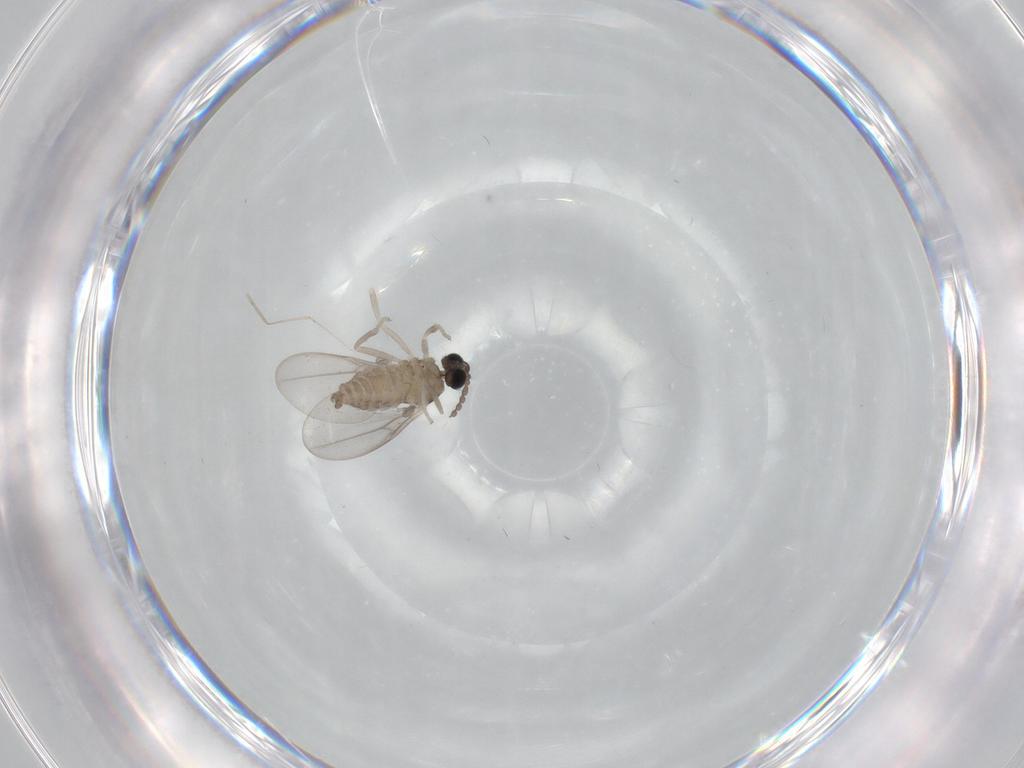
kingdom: Animalia
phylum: Arthropoda
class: Insecta
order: Diptera
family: Cecidomyiidae
